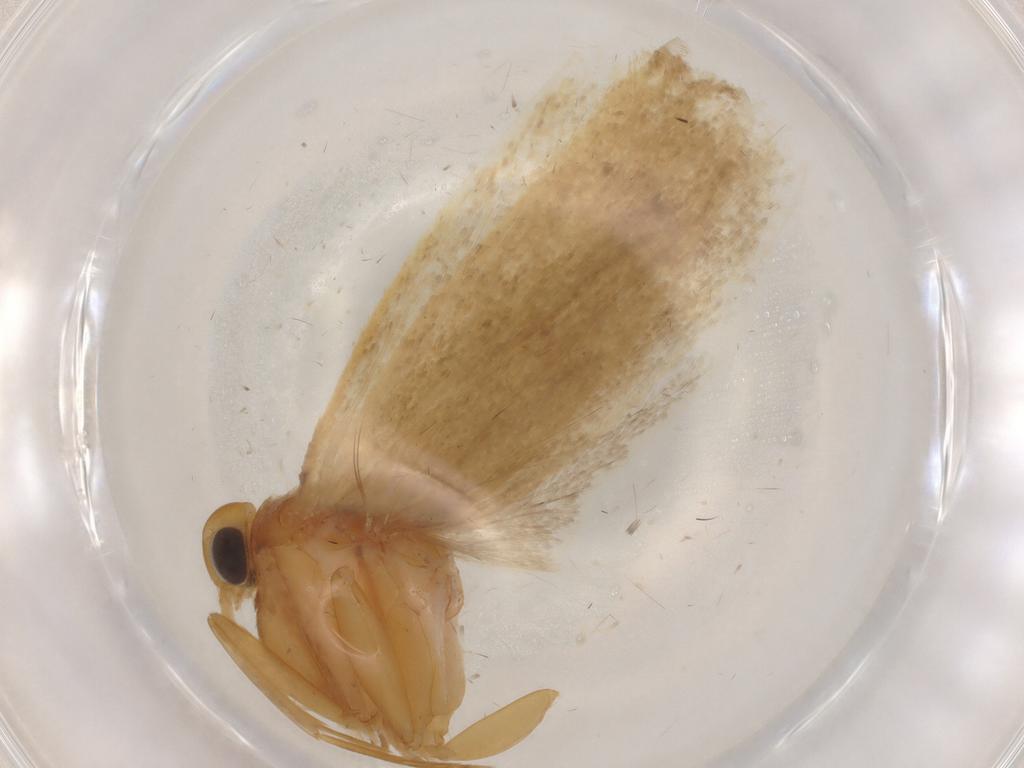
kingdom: Animalia
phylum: Arthropoda
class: Insecta
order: Lepidoptera
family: Autostichidae
